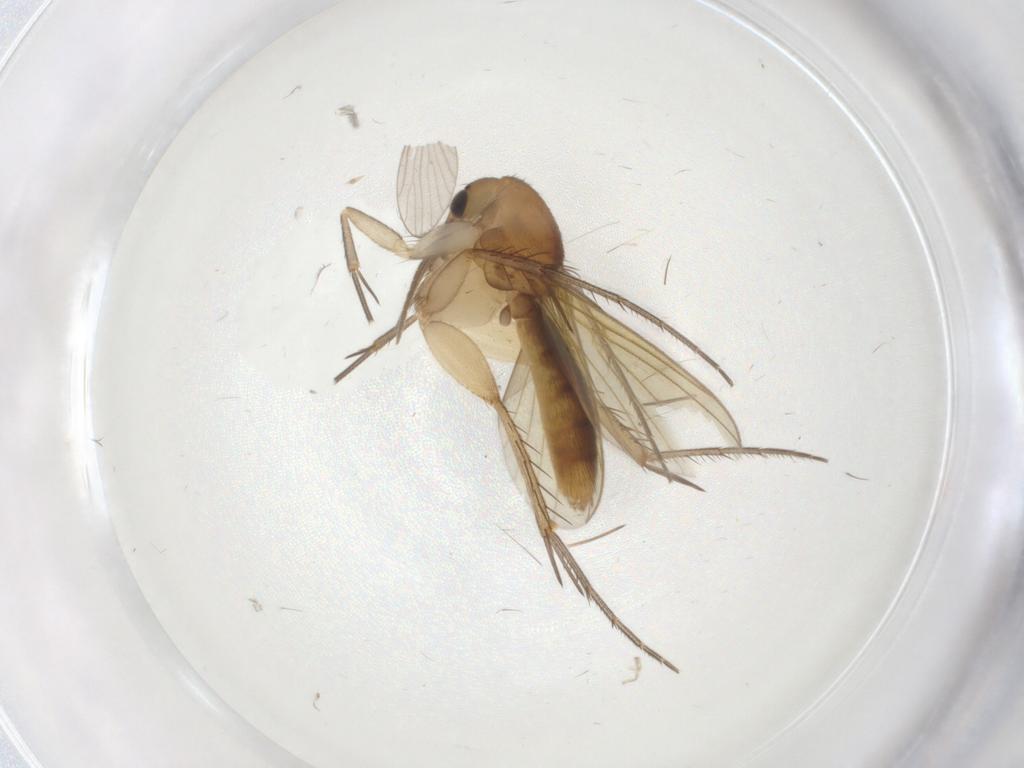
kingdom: Animalia
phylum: Arthropoda
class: Insecta
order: Diptera
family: Mycetophilidae
